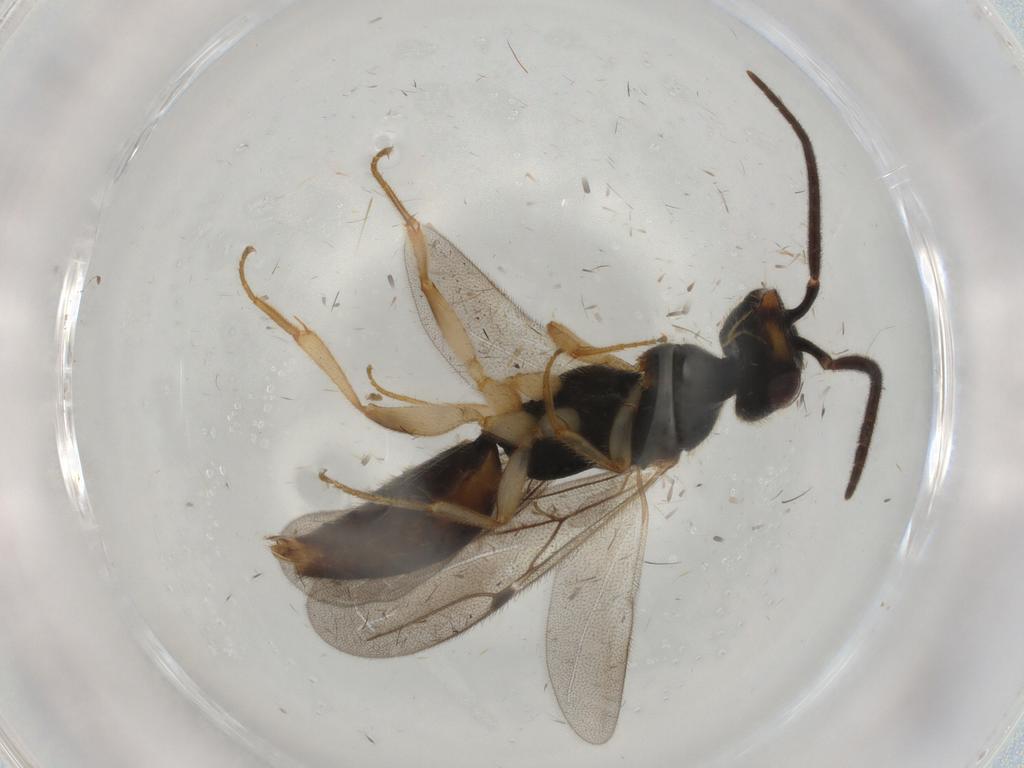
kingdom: Animalia
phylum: Arthropoda
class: Insecta
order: Hymenoptera
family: Bethylidae
